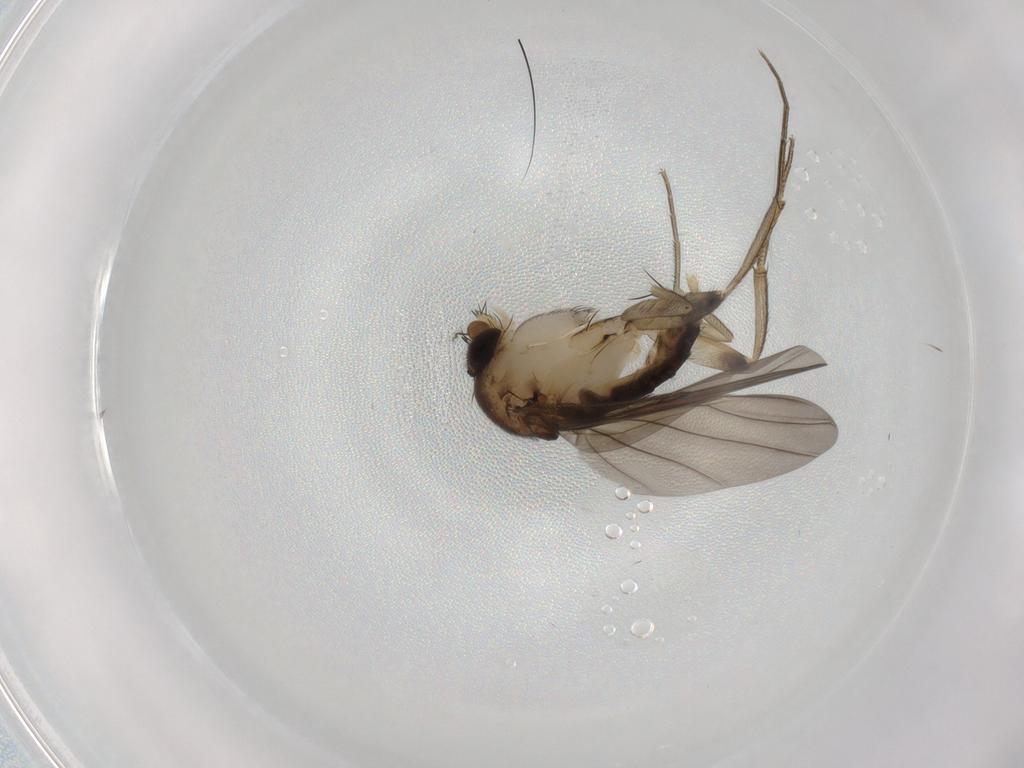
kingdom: Animalia
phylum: Arthropoda
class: Insecta
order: Diptera
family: Phoridae
